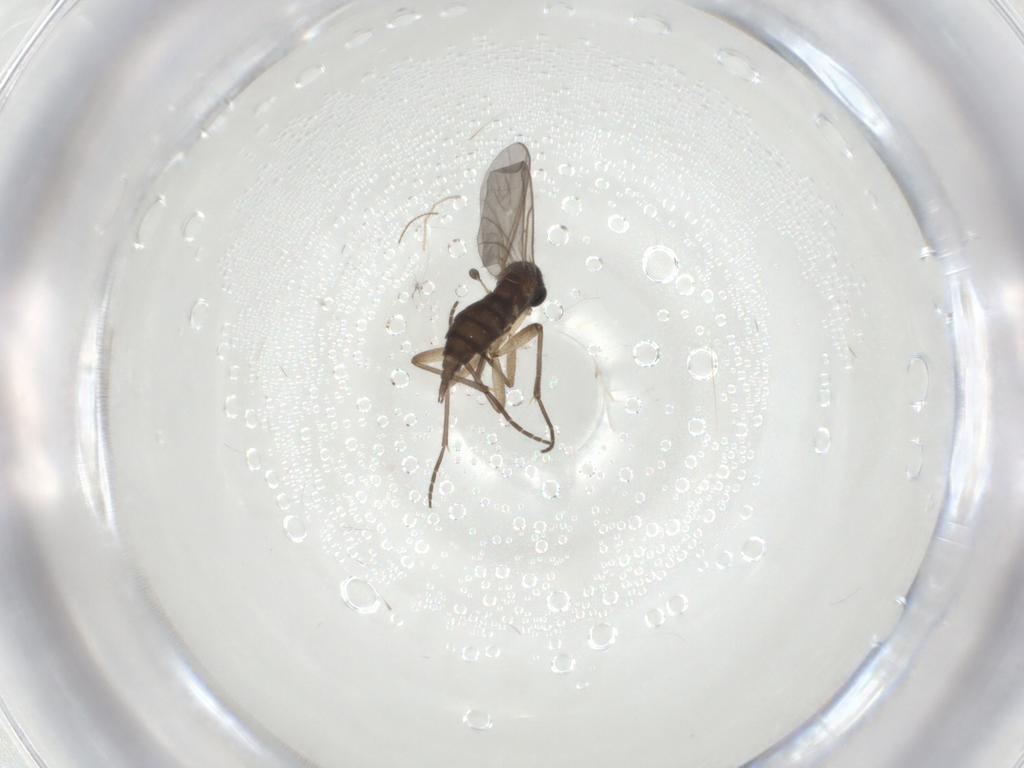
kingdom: Animalia
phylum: Arthropoda
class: Insecta
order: Diptera
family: Ceratopogonidae
